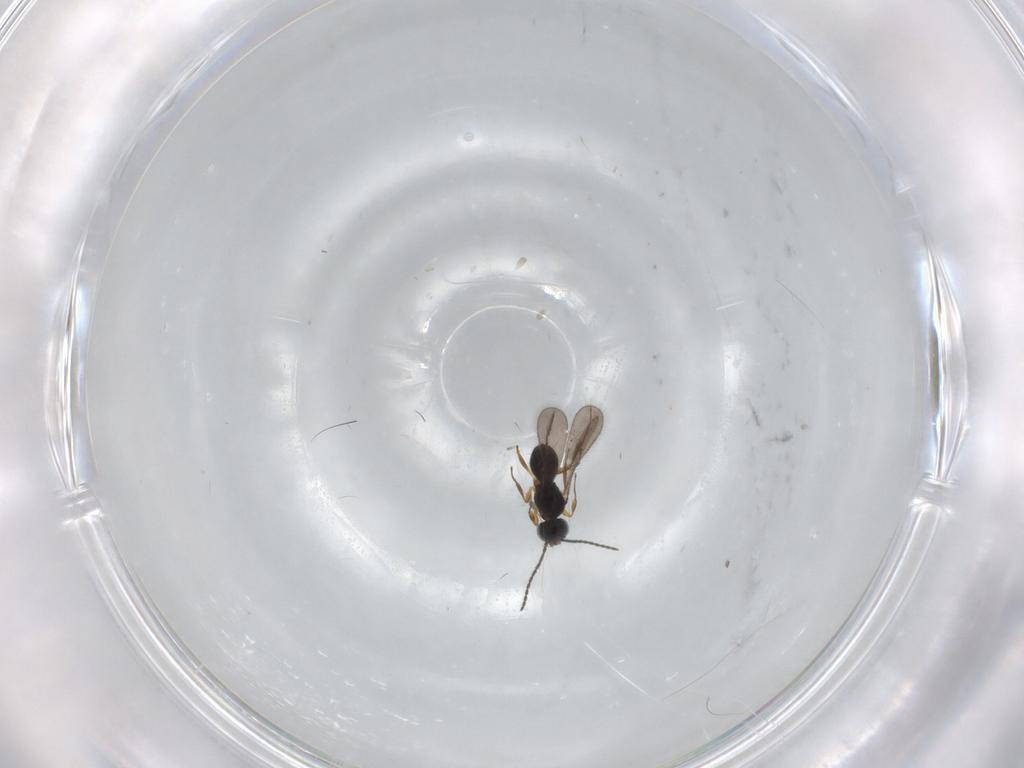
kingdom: Animalia
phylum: Arthropoda
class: Insecta
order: Hymenoptera
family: Scelionidae
